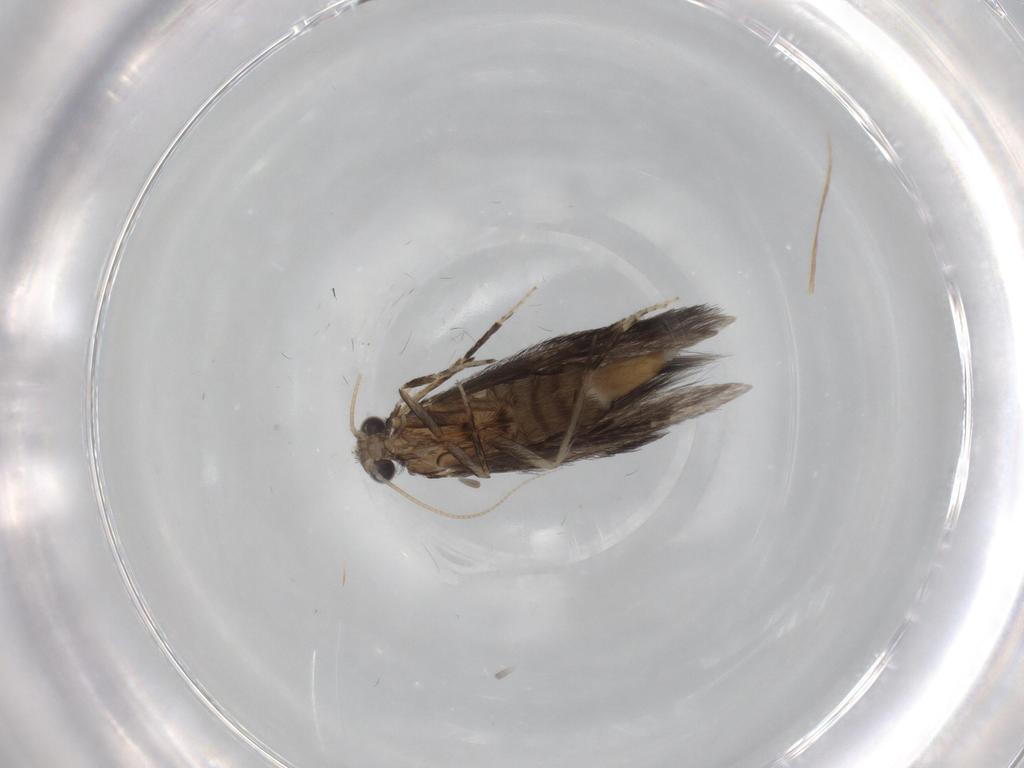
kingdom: Animalia
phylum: Arthropoda
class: Insecta
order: Trichoptera
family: Hydroptilidae
